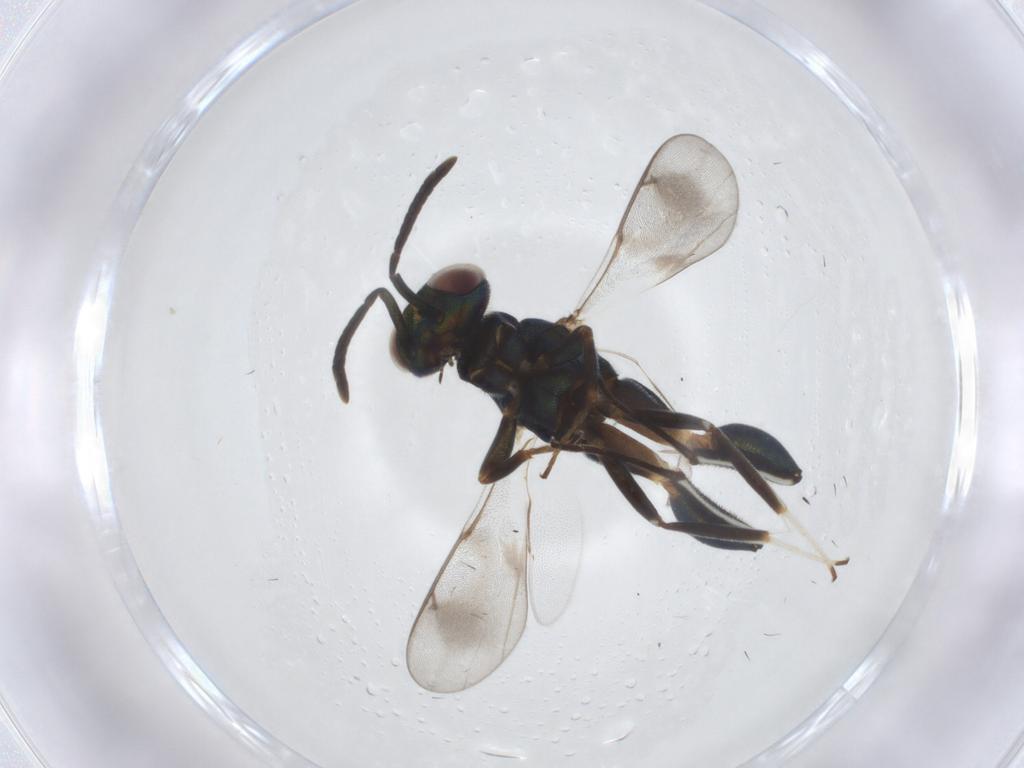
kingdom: Animalia
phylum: Arthropoda
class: Insecta
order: Hymenoptera
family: Eupelmidae
